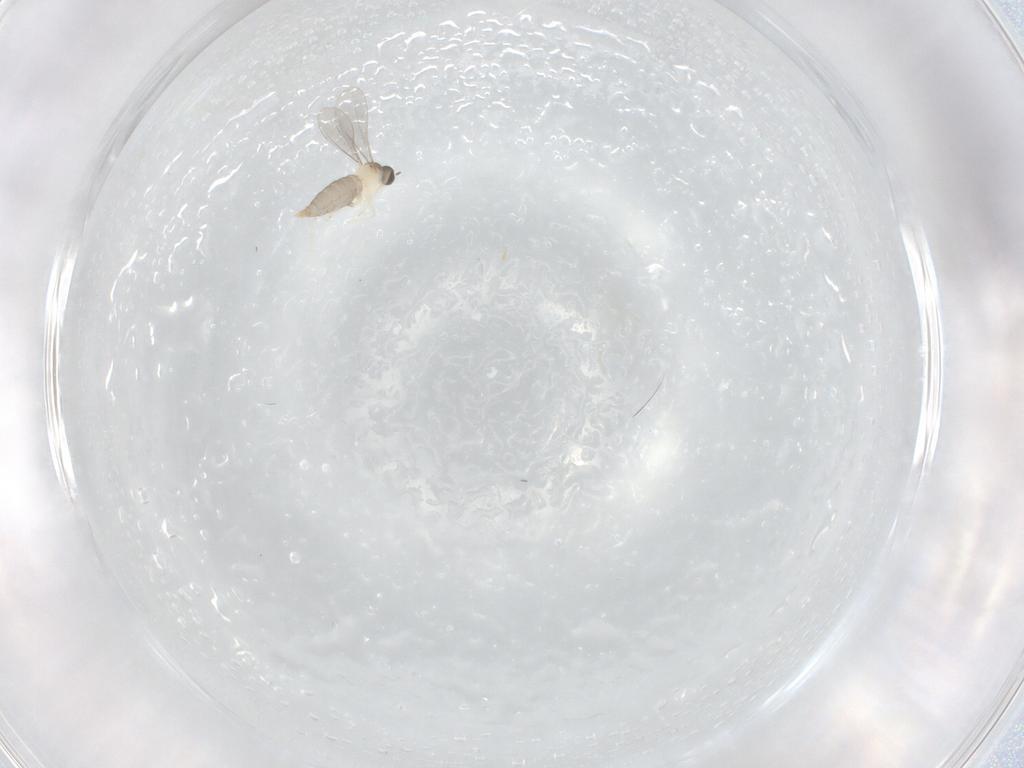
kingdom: Animalia
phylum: Arthropoda
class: Insecta
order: Diptera
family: Cecidomyiidae
